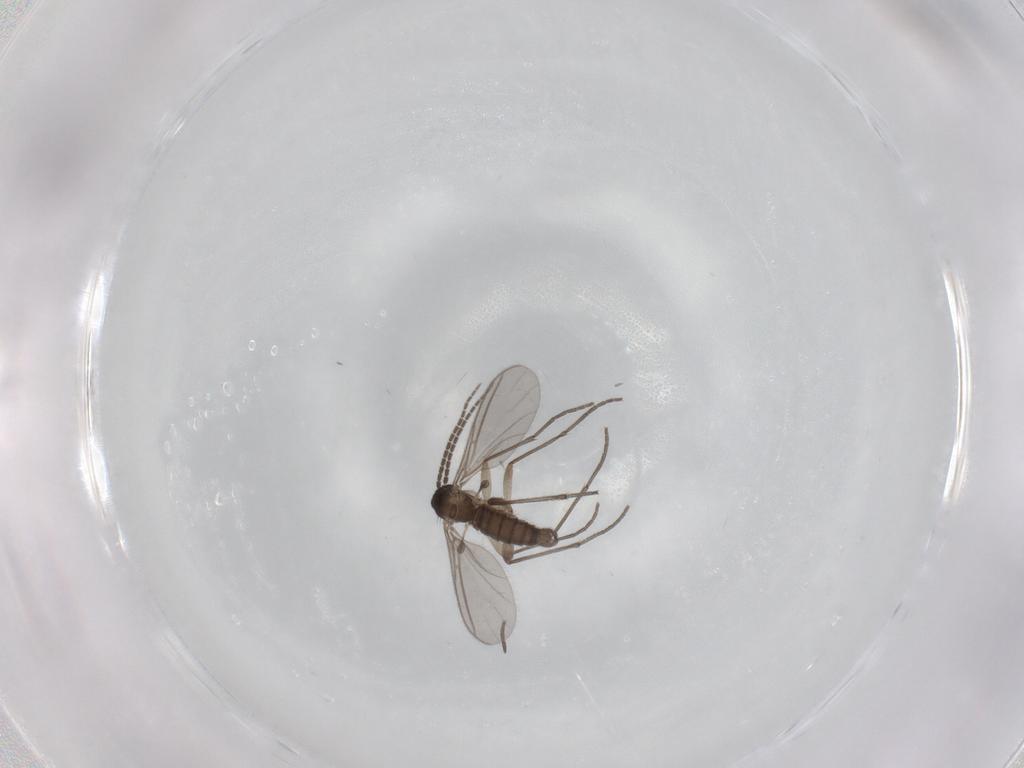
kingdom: Animalia
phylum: Arthropoda
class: Insecta
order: Diptera
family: Sciaridae
